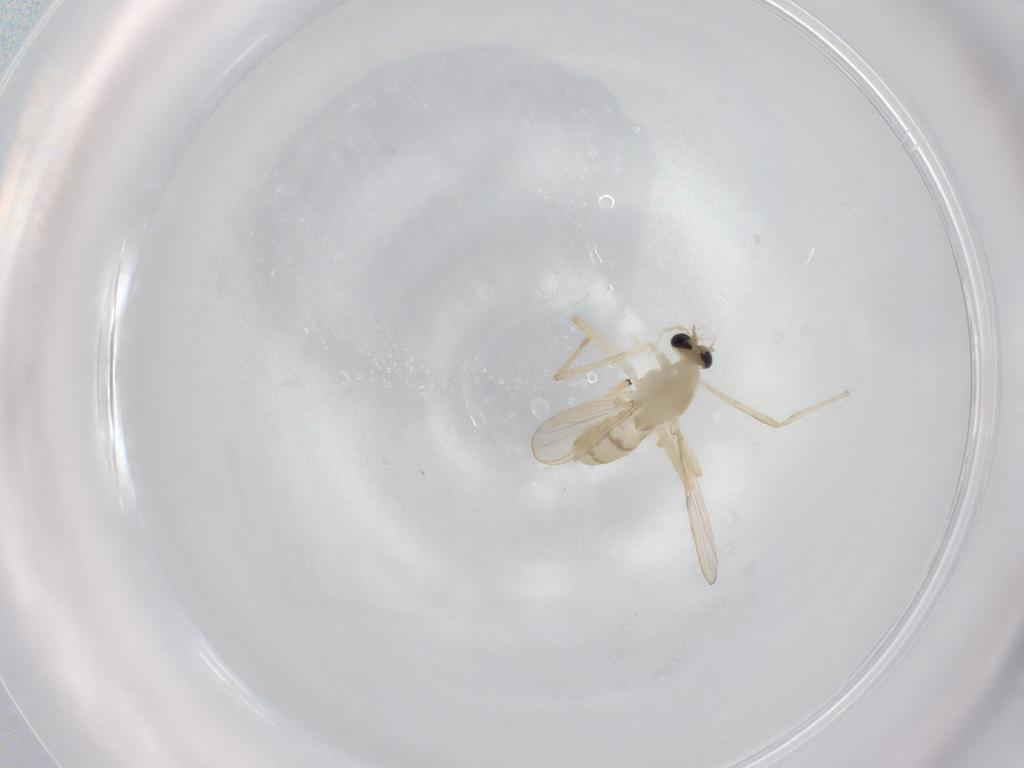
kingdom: Animalia
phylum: Arthropoda
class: Insecta
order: Diptera
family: Chironomidae
